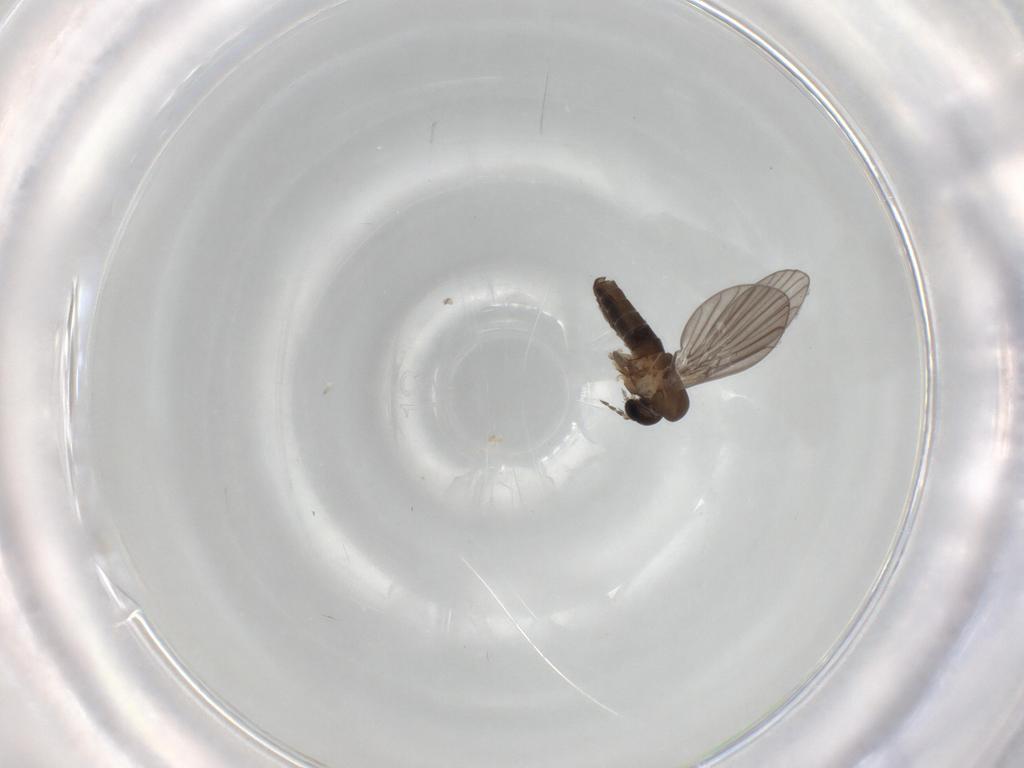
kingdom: Animalia
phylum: Arthropoda
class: Insecta
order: Diptera
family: Psychodidae
